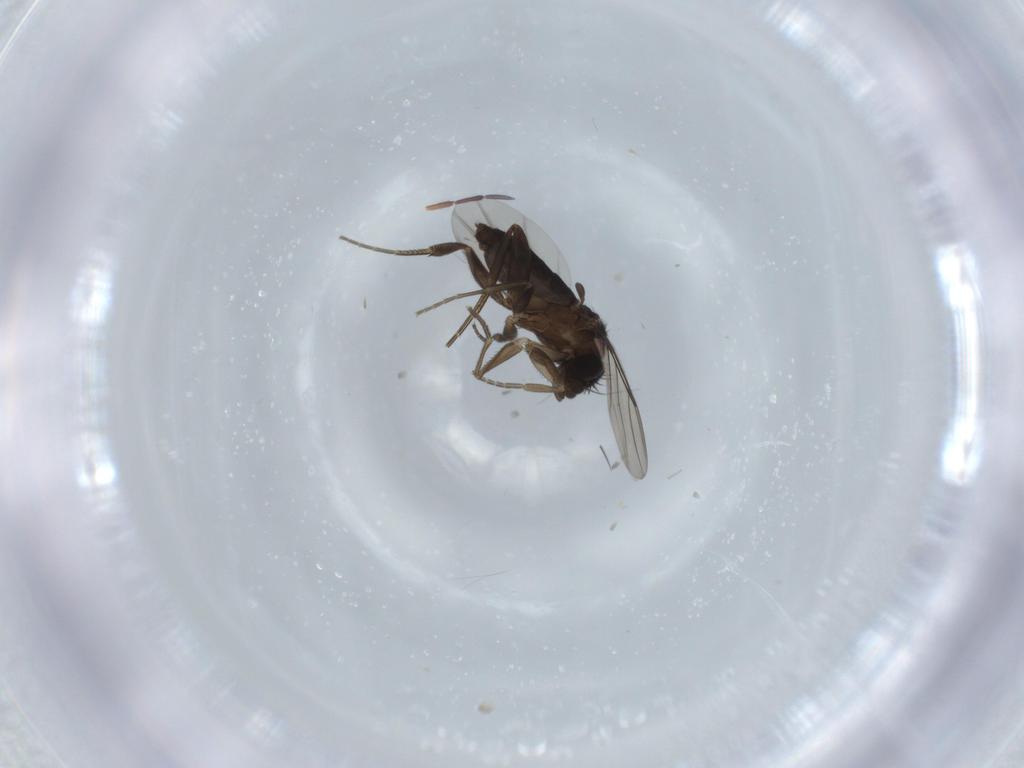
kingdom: Animalia
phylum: Arthropoda
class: Insecta
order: Diptera
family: Phoridae
